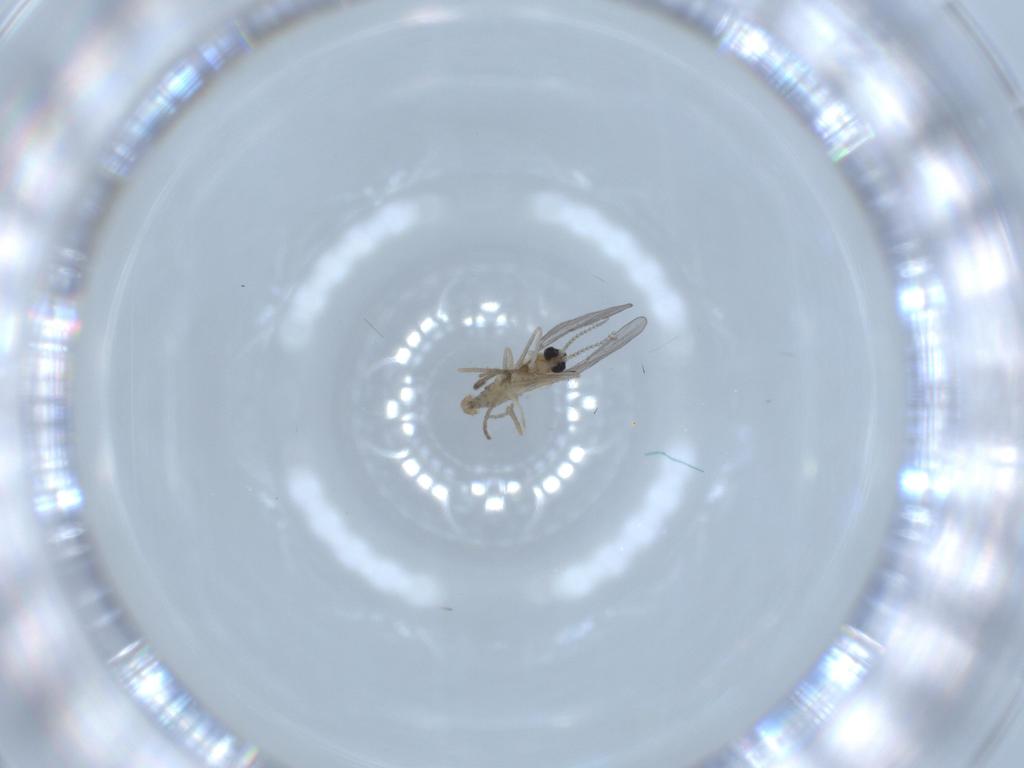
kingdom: Animalia
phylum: Arthropoda
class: Insecta
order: Diptera
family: Cecidomyiidae
